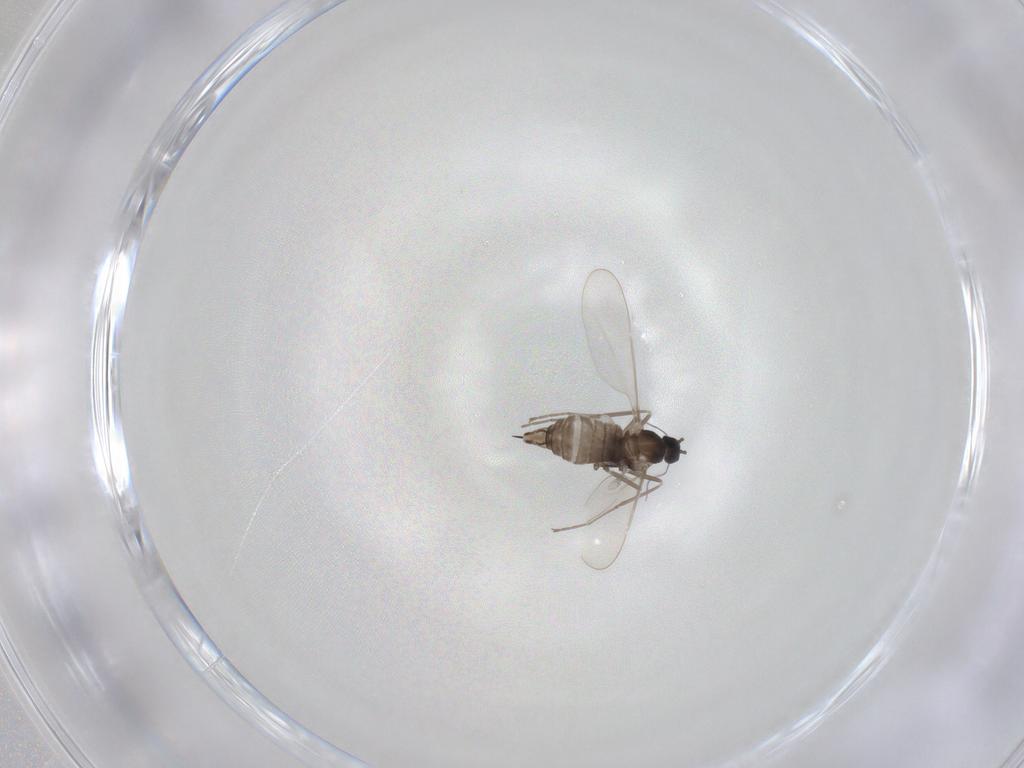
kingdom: Animalia
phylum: Arthropoda
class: Insecta
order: Diptera
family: Cecidomyiidae
